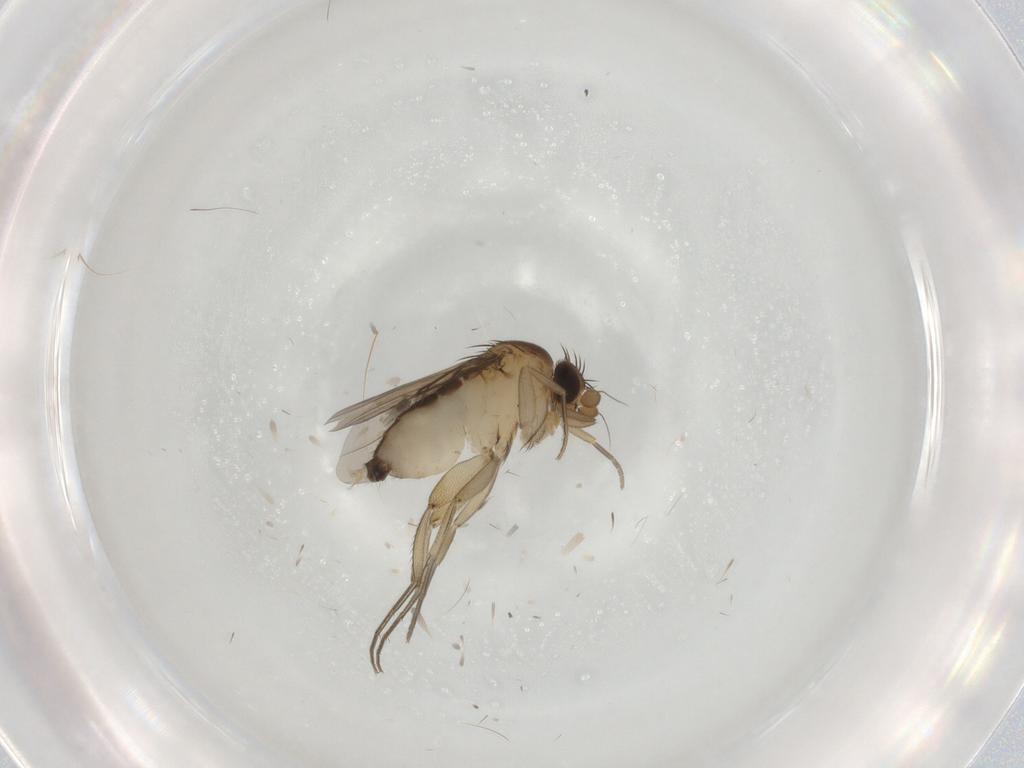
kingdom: Animalia
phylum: Arthropoda
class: Insecta
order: Diptera
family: Phoridae
